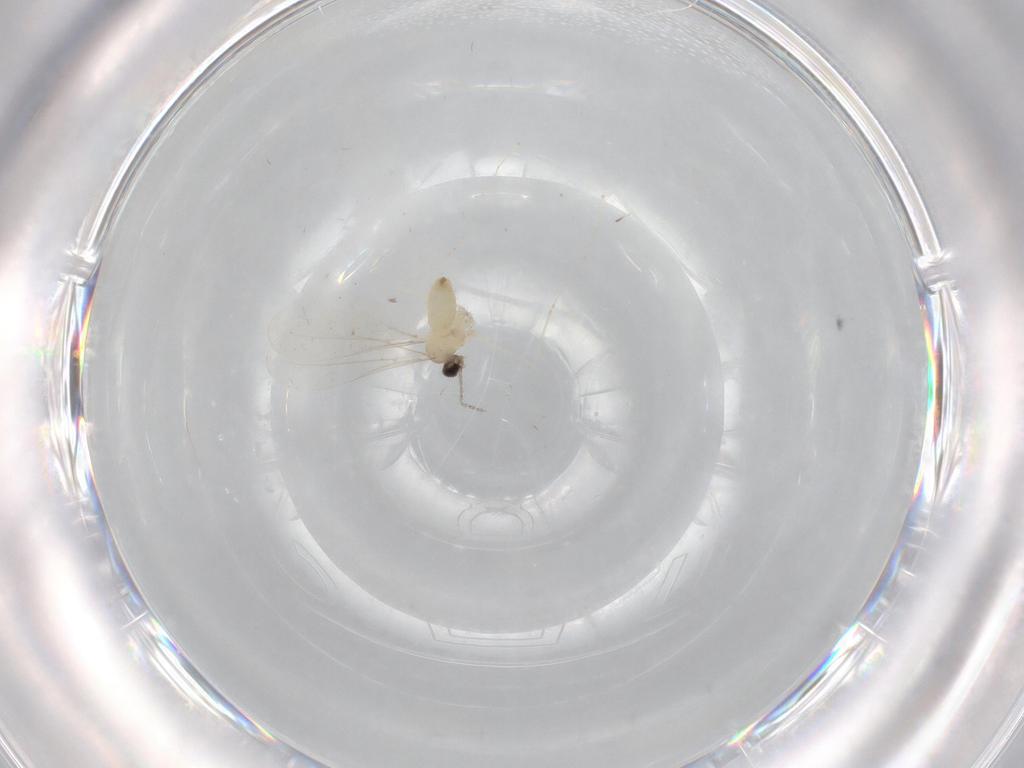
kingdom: Animalia
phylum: Arthropoda
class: Insecta
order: Diptera
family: Cecidomyiidae
